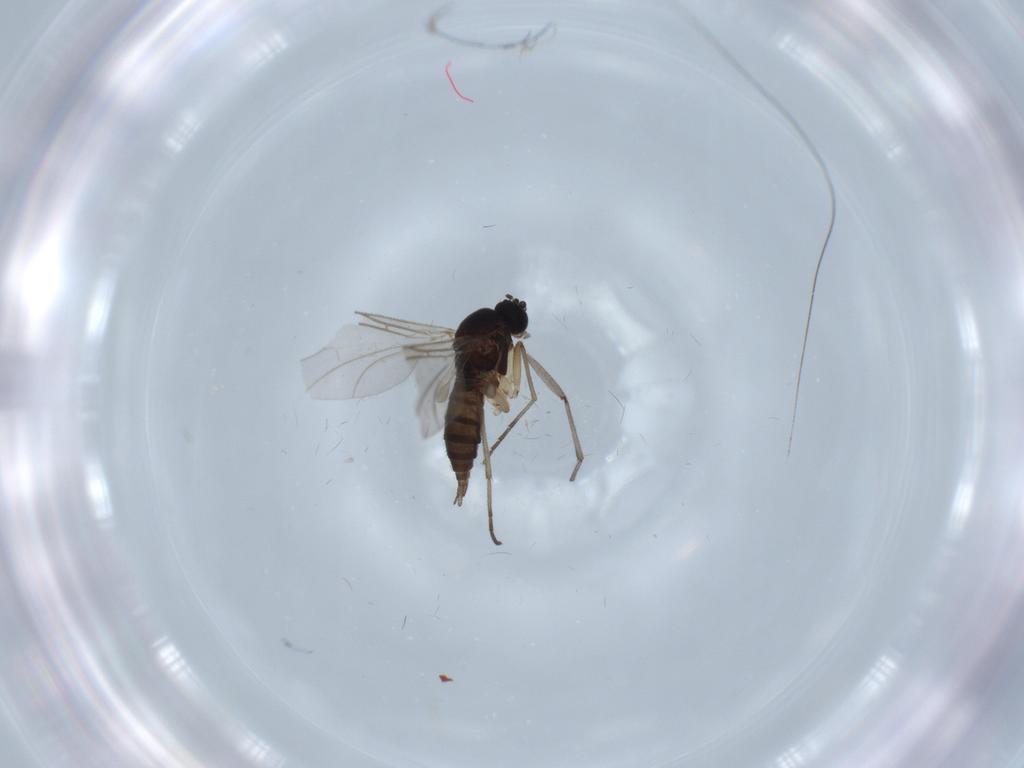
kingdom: Animalia
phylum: Arthropoda
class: Insecta
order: Diptera
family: Sciaridae
